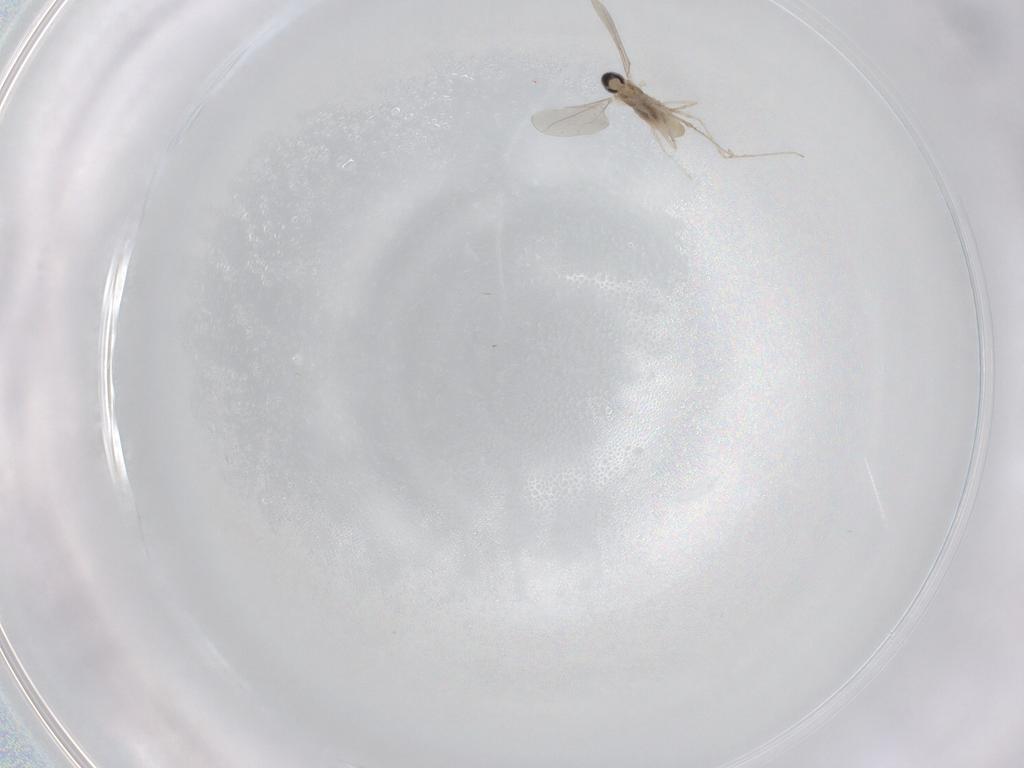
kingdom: Animalia
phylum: Arthropoda
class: Insecta
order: Diptera
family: Cecidomyiidae
